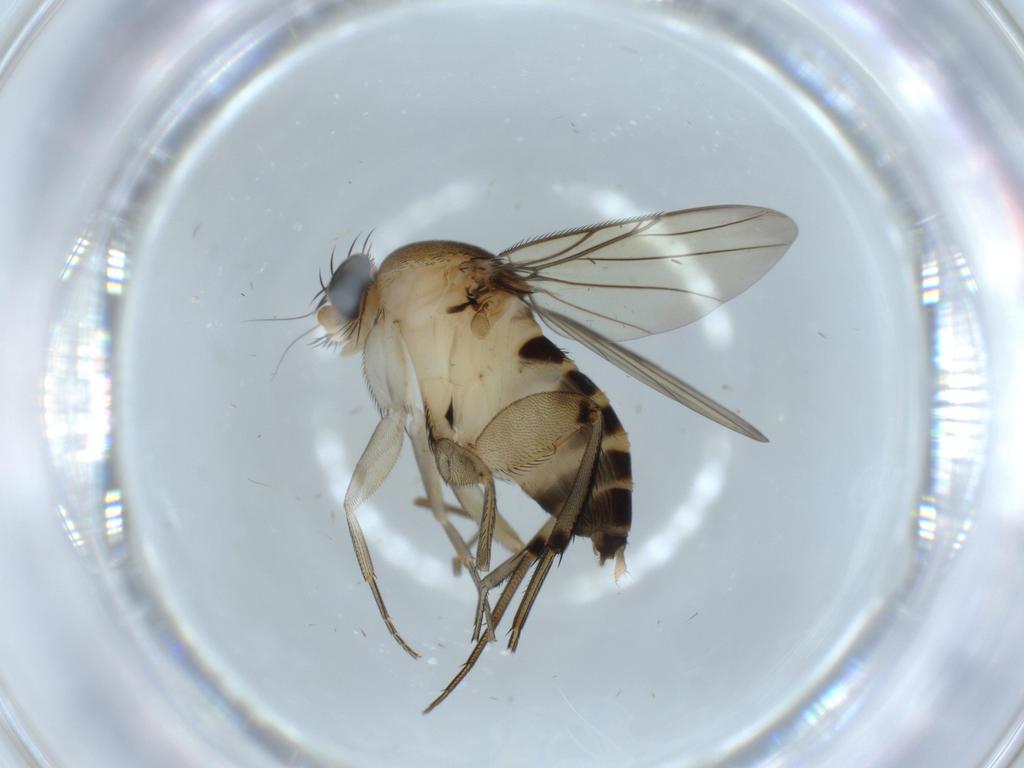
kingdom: Animalia
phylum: Arthropoda
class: Insecta
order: Diptera
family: Phoridae
